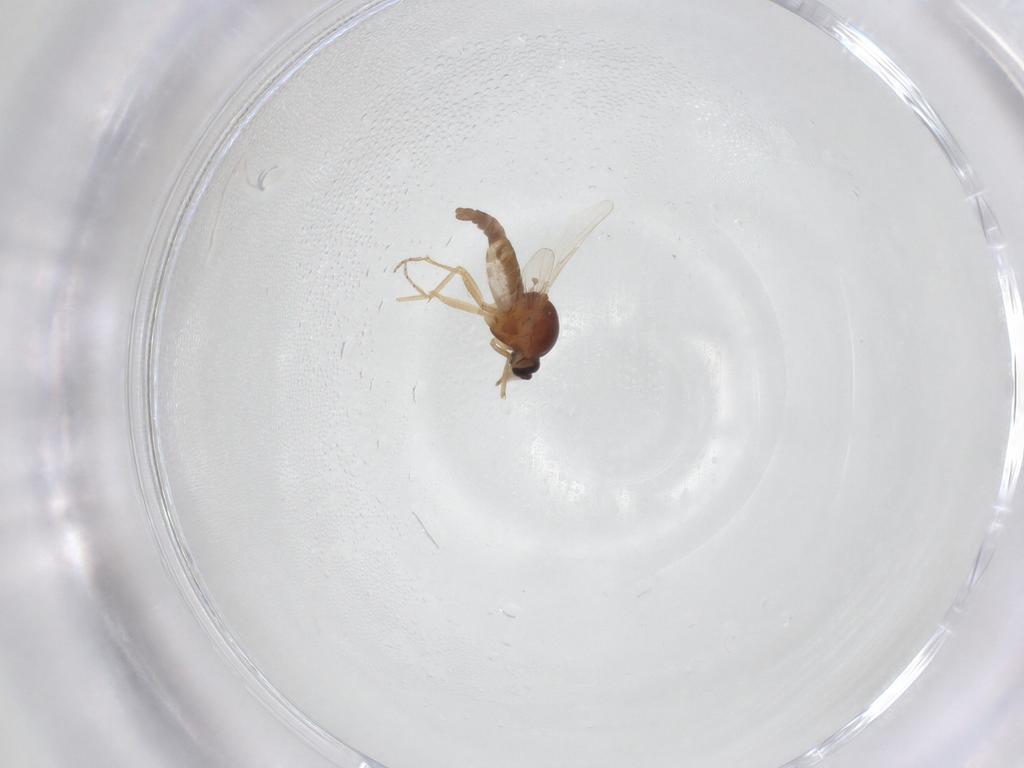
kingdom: Animalia
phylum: Arthropoda
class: Insecta
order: Diptera
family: Ceratopogonidae
